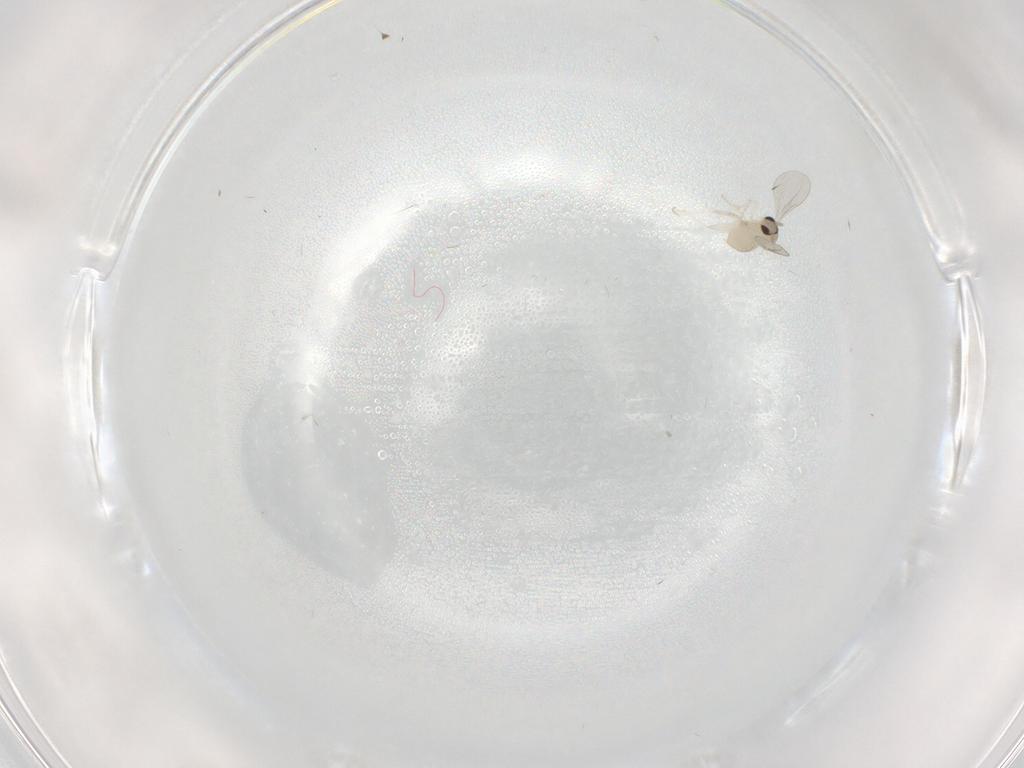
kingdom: Animalia
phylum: Arthropoda
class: Insecta
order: Diptera
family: Cecidomyiidae
